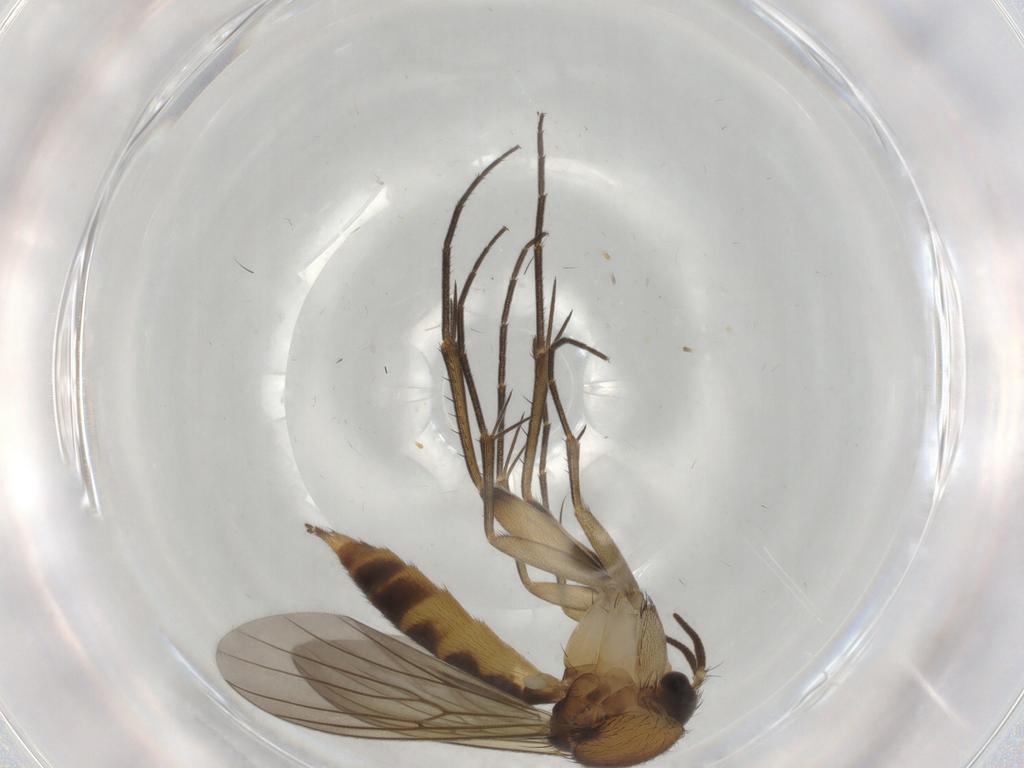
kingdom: Animalia
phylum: Arthropoda
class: Insecta
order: Diptera
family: Mycetophilidae
